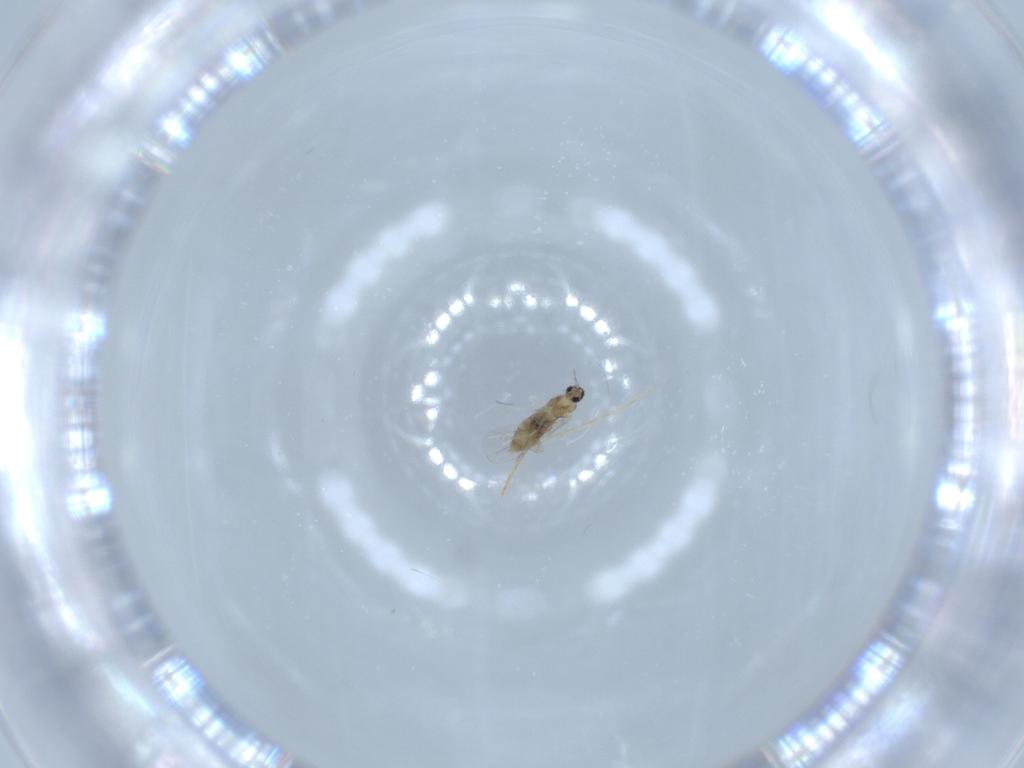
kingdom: Animalia
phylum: Arthropoda
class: Insecta
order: Diptera
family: Cecidomyiidae
